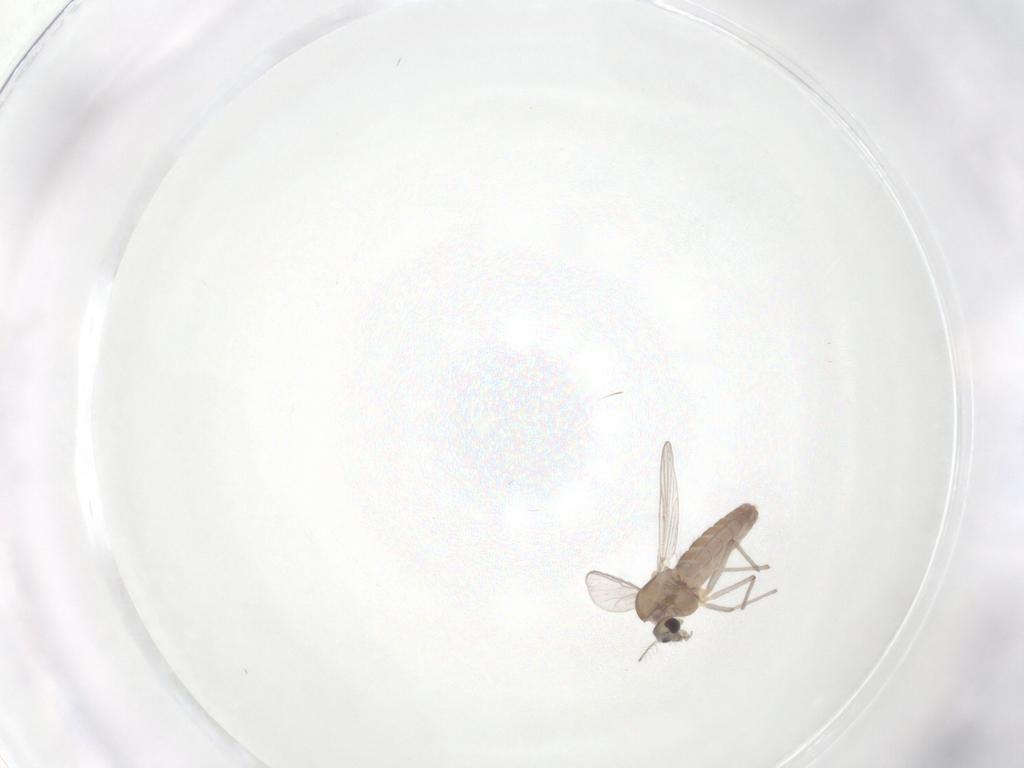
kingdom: Animalia
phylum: Arthropoda
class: Insecta
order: Diptera
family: Chironomidae
